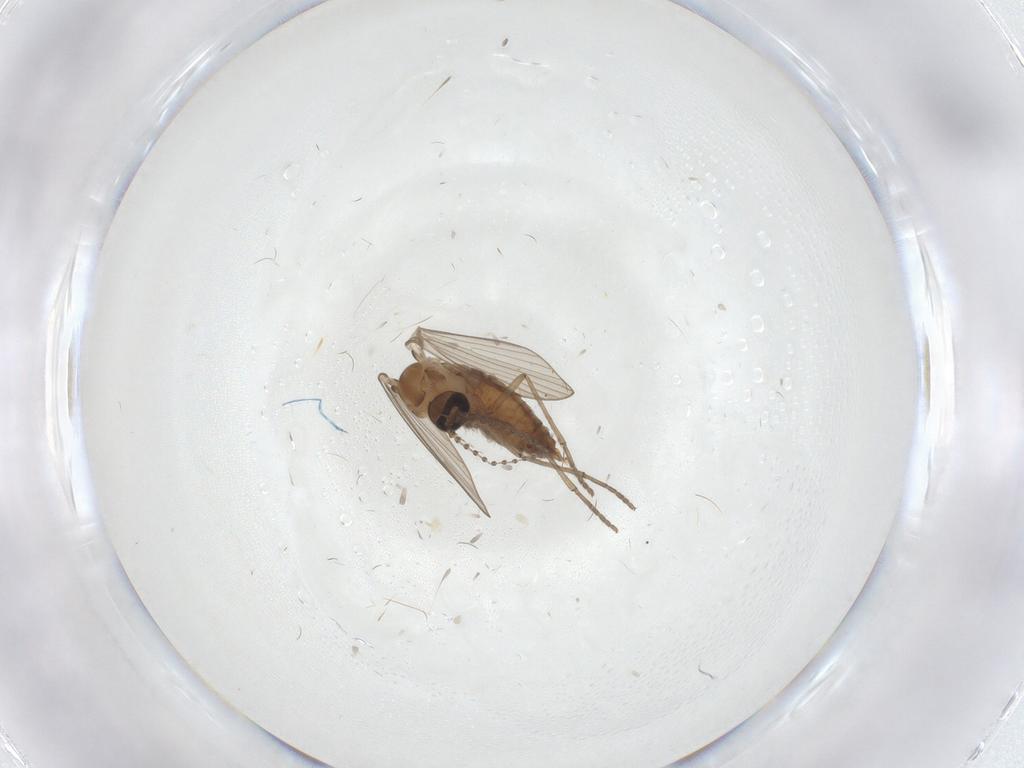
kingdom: Animalia
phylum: Arthropoda
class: Insecta
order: Diptera
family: Psychodidae
